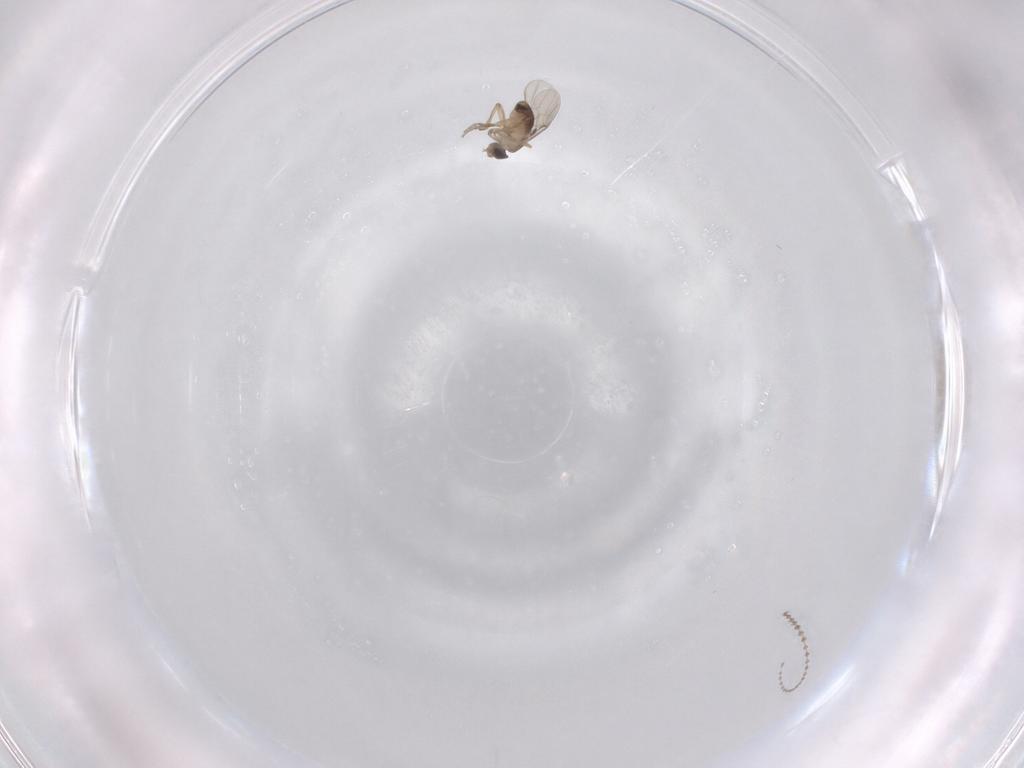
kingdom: Animalia
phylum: Arthropoda
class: Insecta
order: Diptera
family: Phoridae
